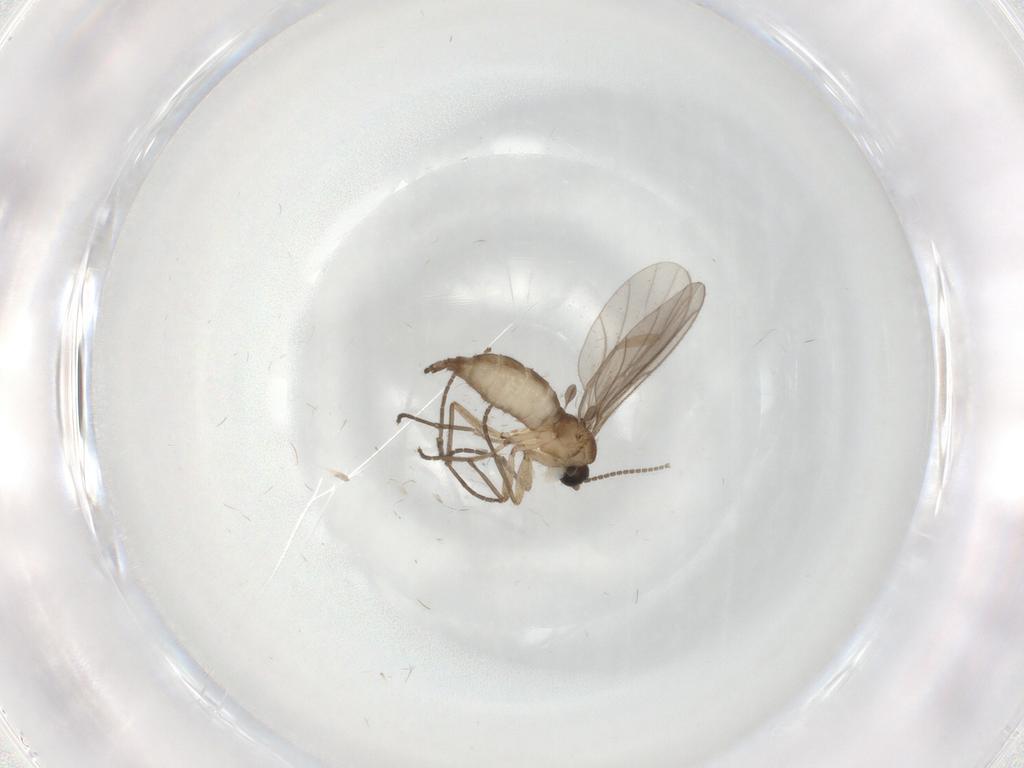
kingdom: Animalia
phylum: Arthropoda
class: Insecta
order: Diptera
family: Sciaridae
